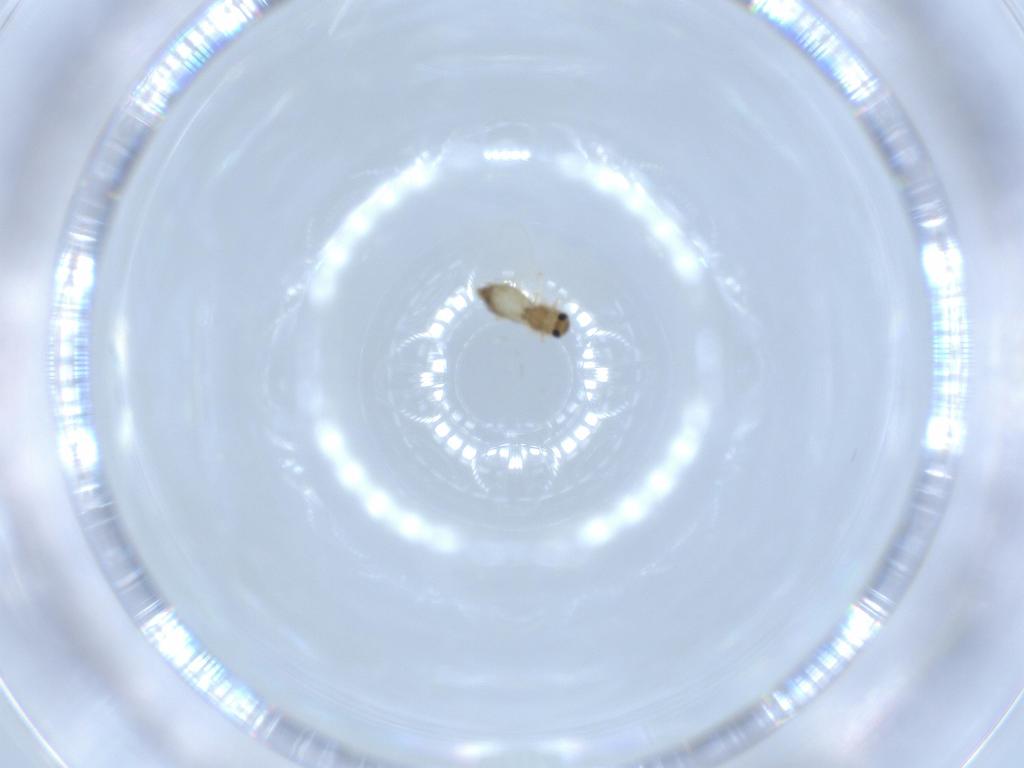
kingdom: Animalia
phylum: Arthropoda
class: Insecta
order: Diptera
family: Chironomidae
